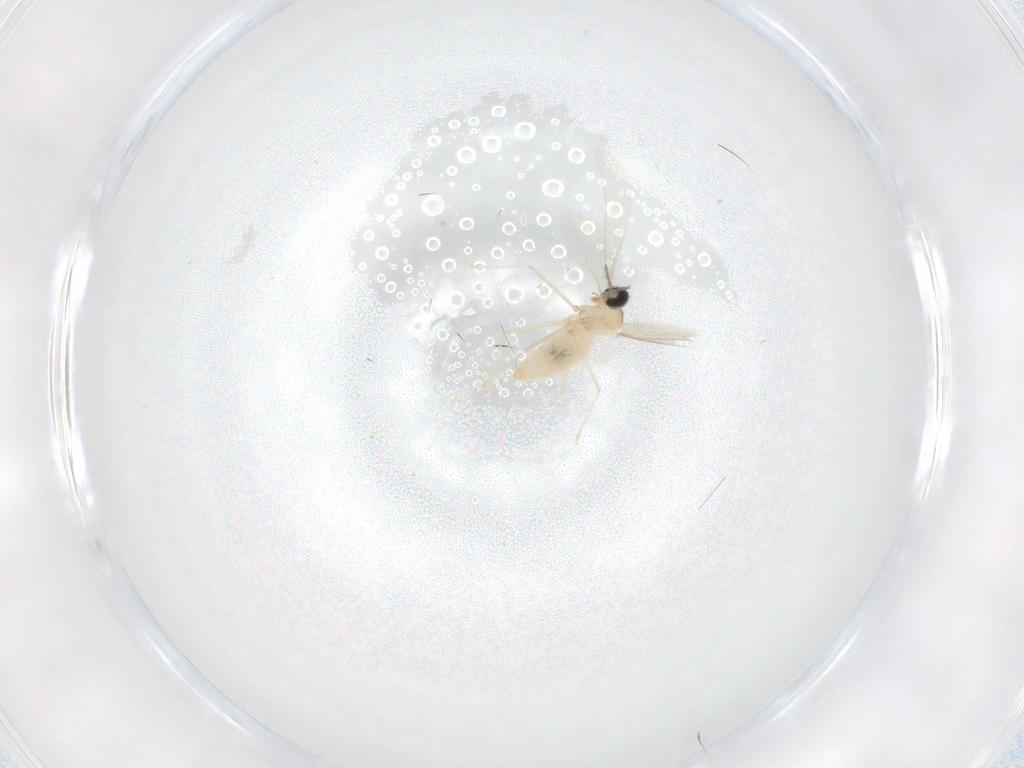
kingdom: Animalia
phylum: Arthropoda
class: Insecta
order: Diptera
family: Cecidomyiidae
